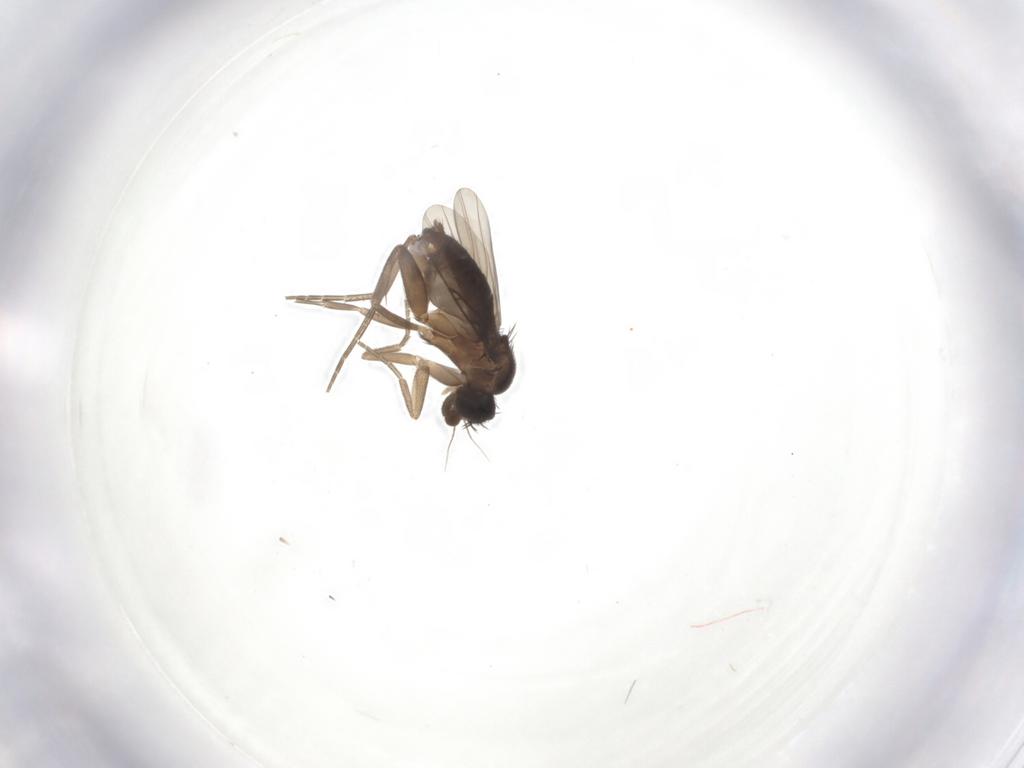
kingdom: Animalia
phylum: Arthropoda
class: Insecta
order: Diptera
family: Phoridae
